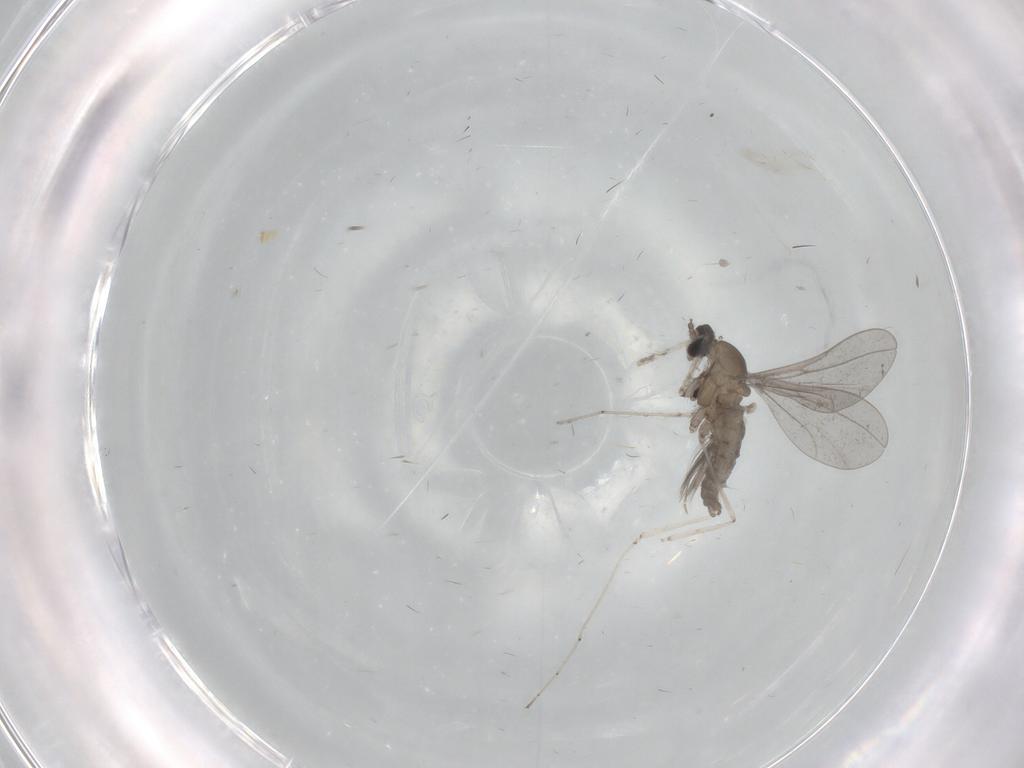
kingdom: Animalia
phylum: Arthropoda
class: Insecta
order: Diptera
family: Cecidomyiidae
